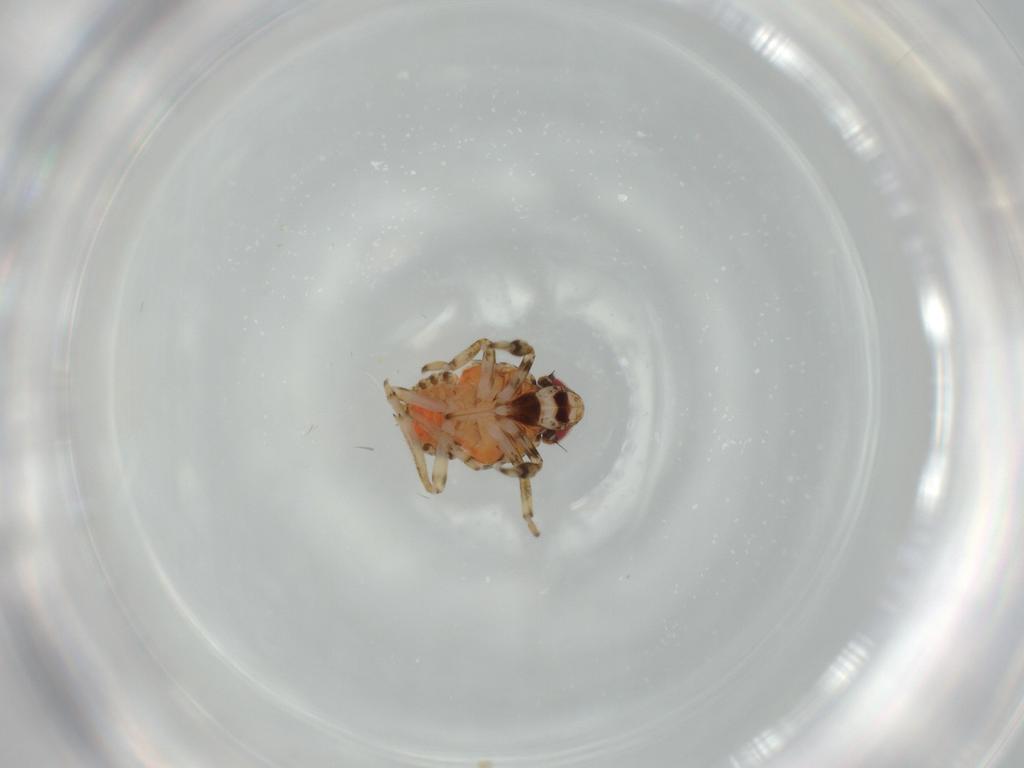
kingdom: Animalia
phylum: Arthropoda
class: Insecta
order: Hemiptera
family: Issidae
